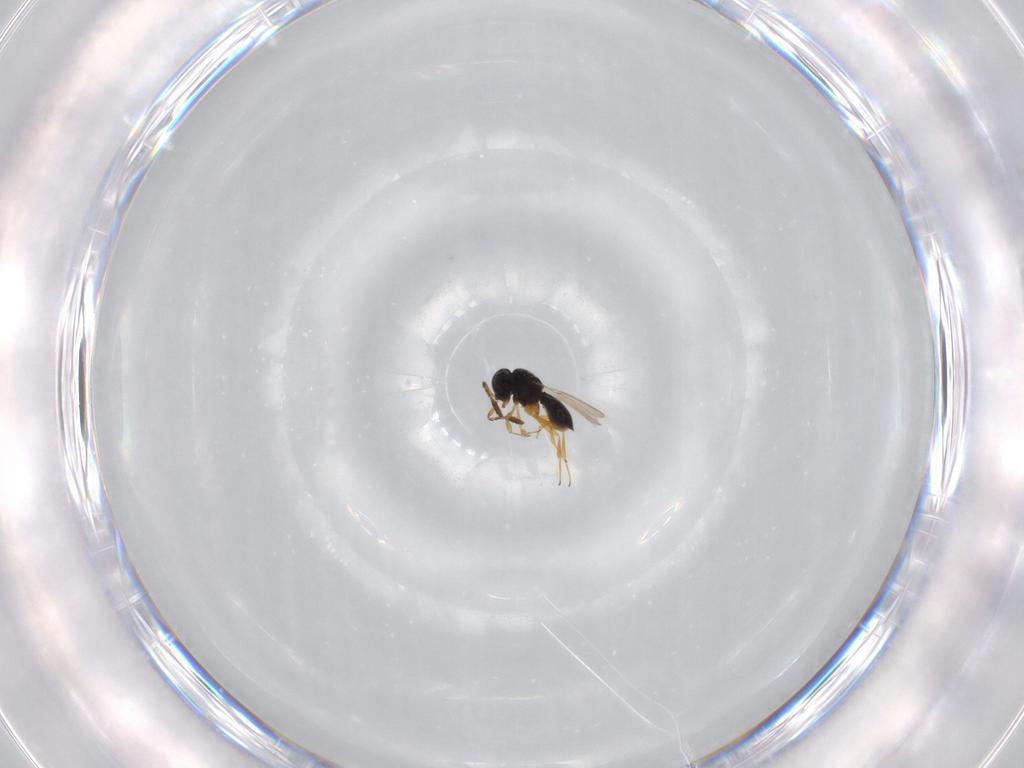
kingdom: Animalia
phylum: Arthropoda
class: Insecta
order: Hymenoptera
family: Scelionidae
